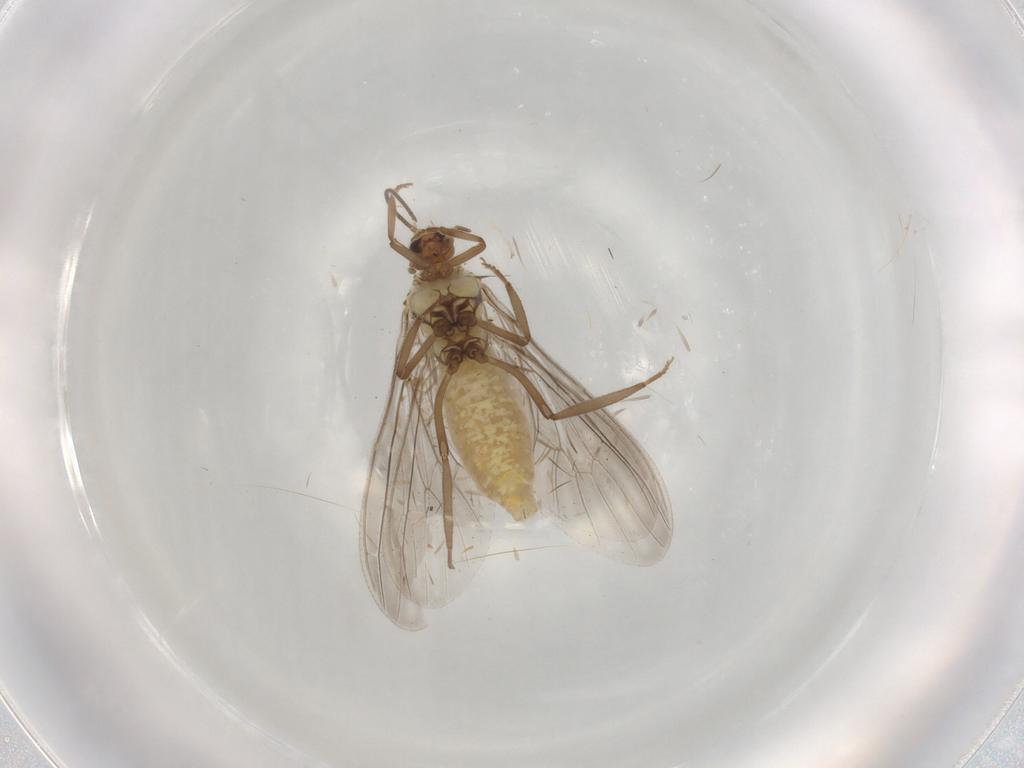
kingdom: Animalia
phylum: Arthropoda
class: Insecta
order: Neuroptera
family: Coniopterygidae
